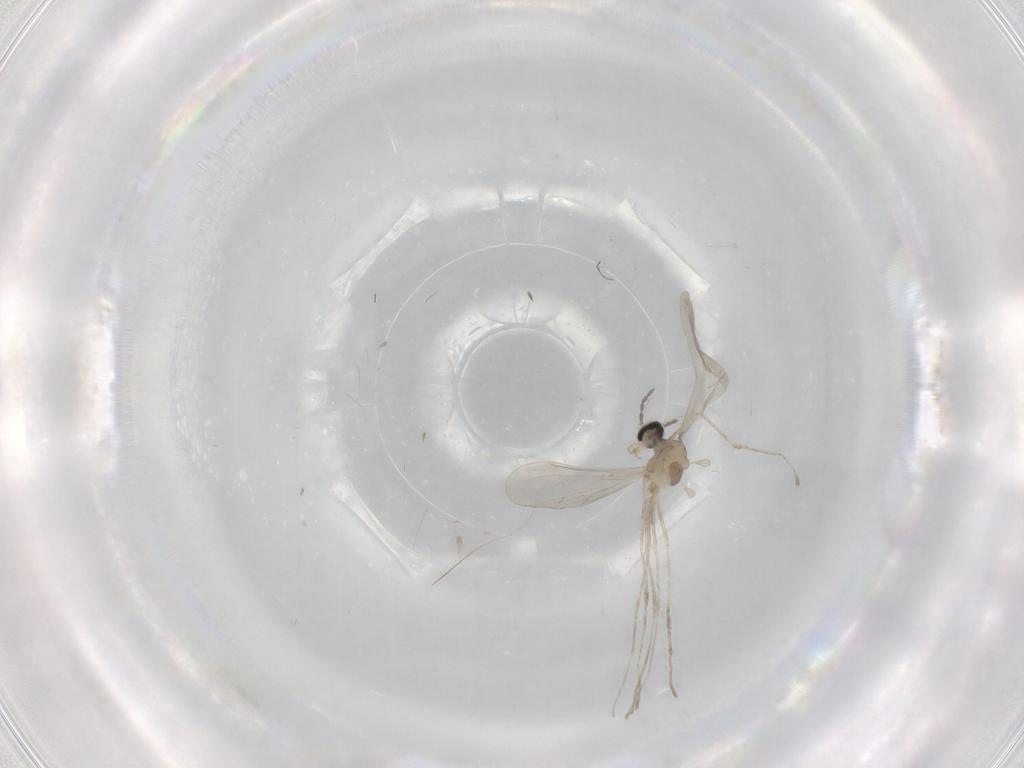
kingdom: Animalia
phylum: Arthropoda
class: Insecta
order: Diptera
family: Cecidomyiidae
